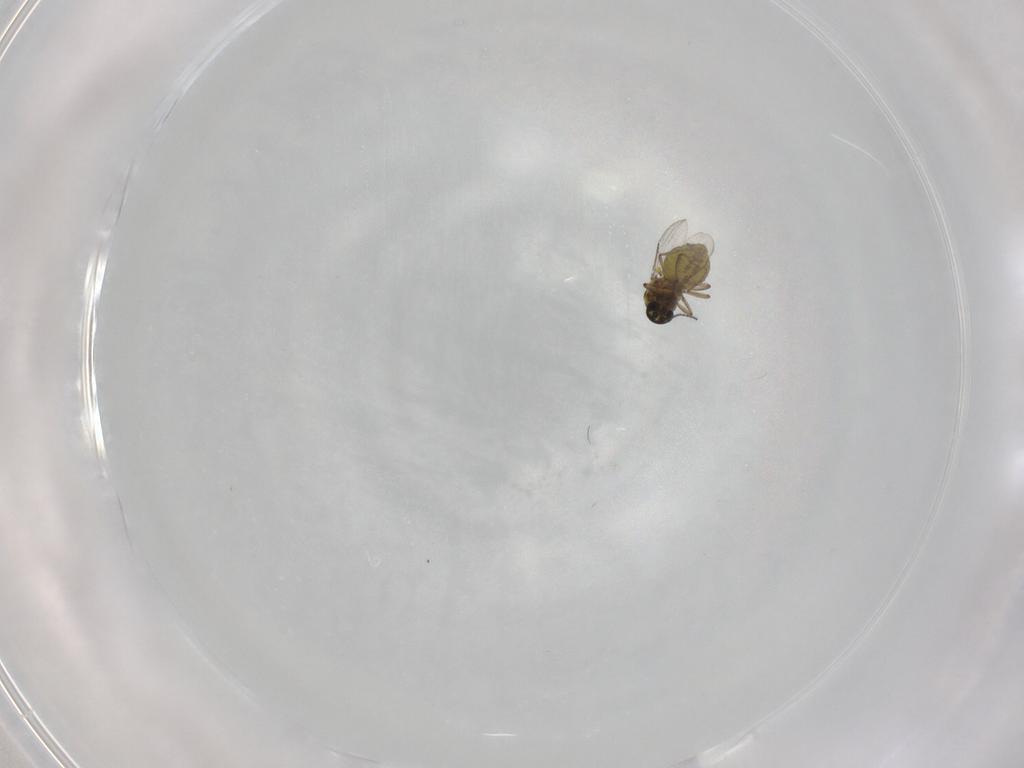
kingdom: Animalia
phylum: Arthropoda
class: Insecta
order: Diptera
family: Ceratopogonidae
